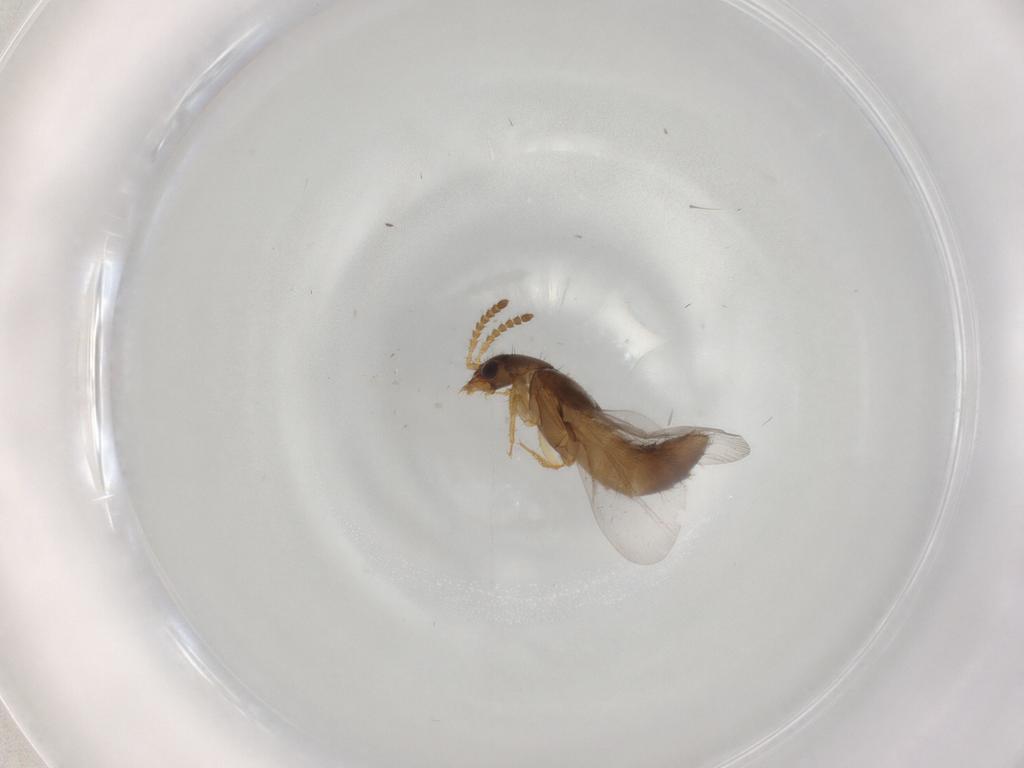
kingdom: Animalia
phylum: Arthropoda
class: Insecta
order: Coleoptera
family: Staphylinidae
